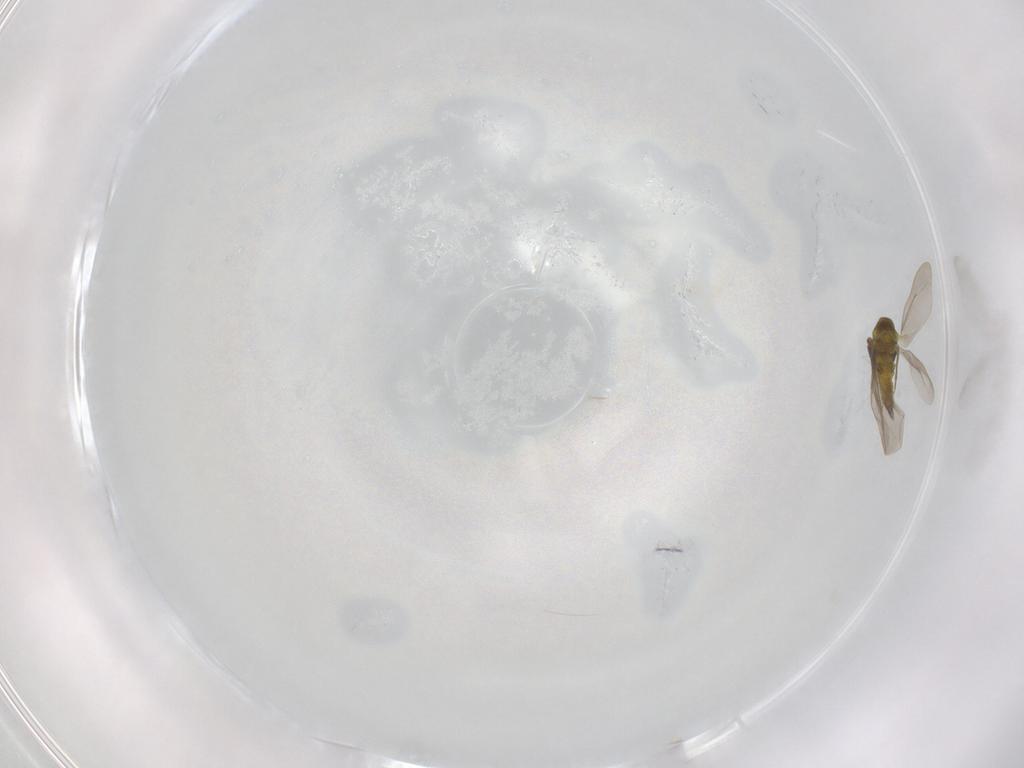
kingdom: Animalia
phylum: Arthropoda
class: Insecta
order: Hemiptera
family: Aleyrodidae
